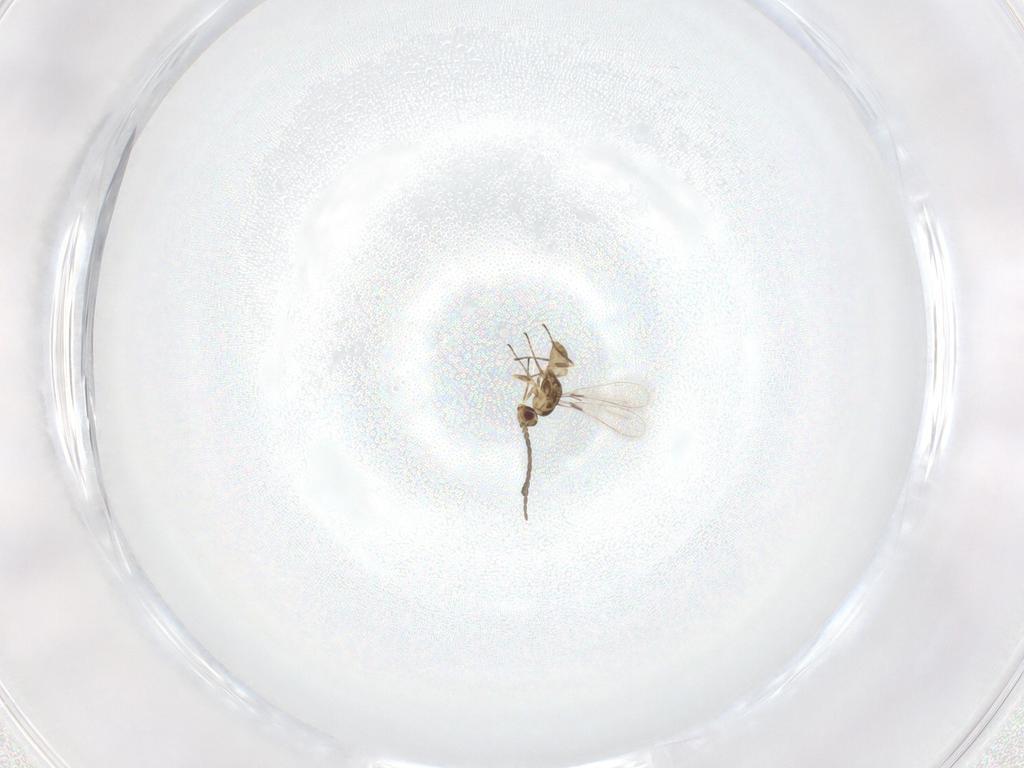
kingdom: Animalia
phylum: Arthropoda
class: Insecta
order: Hymenoptera
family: Mymaridae
